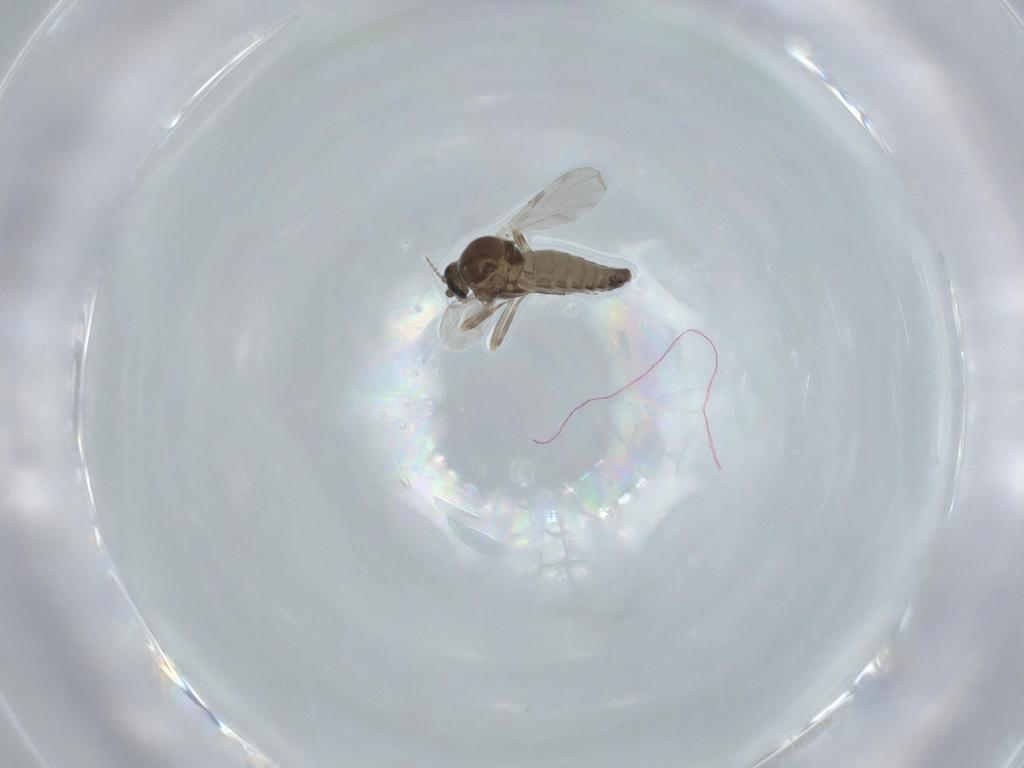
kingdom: Animalia
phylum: Arthropoda
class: Insecta
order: Diptera
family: Ceratopogonidae
